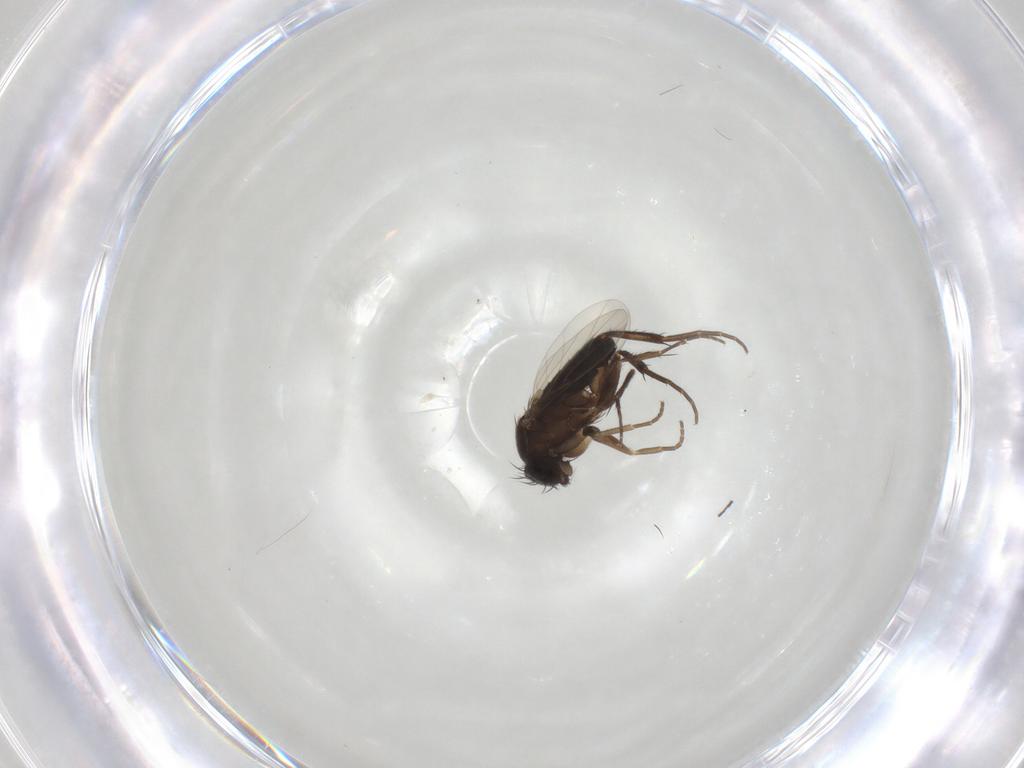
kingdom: Animalia
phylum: Arthropoda
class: Insecta
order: Diptera
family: Phoridae
